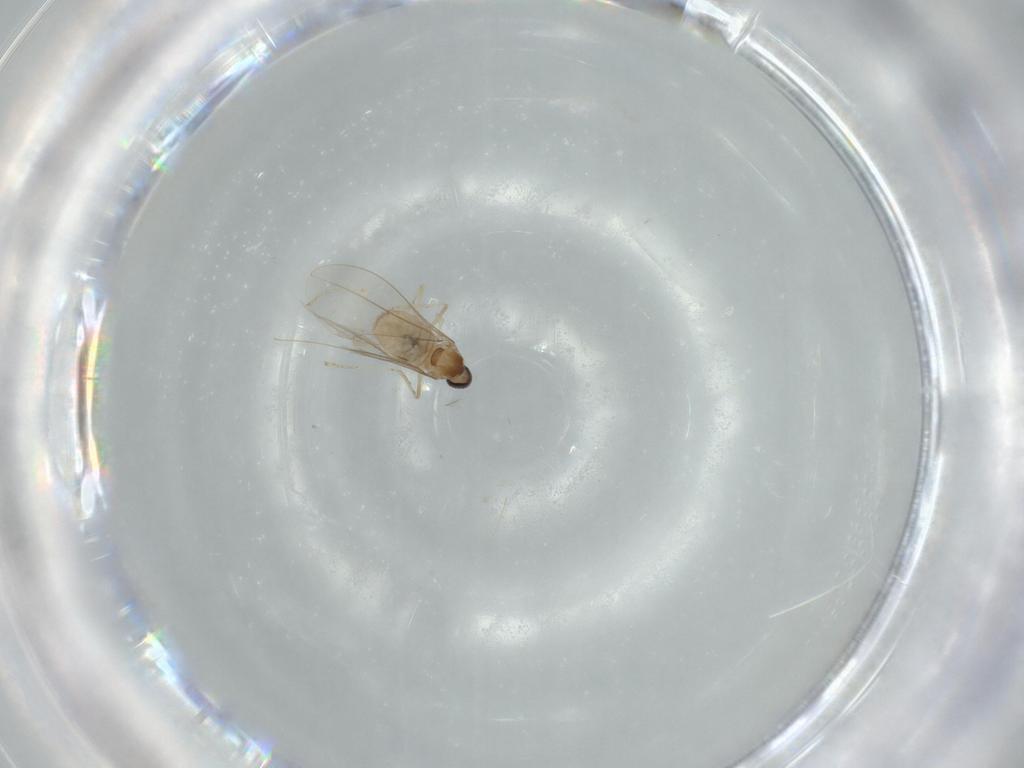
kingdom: Animalia
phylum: Arthropoda
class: Insecta
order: Diptera
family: Cecidomyiidae
